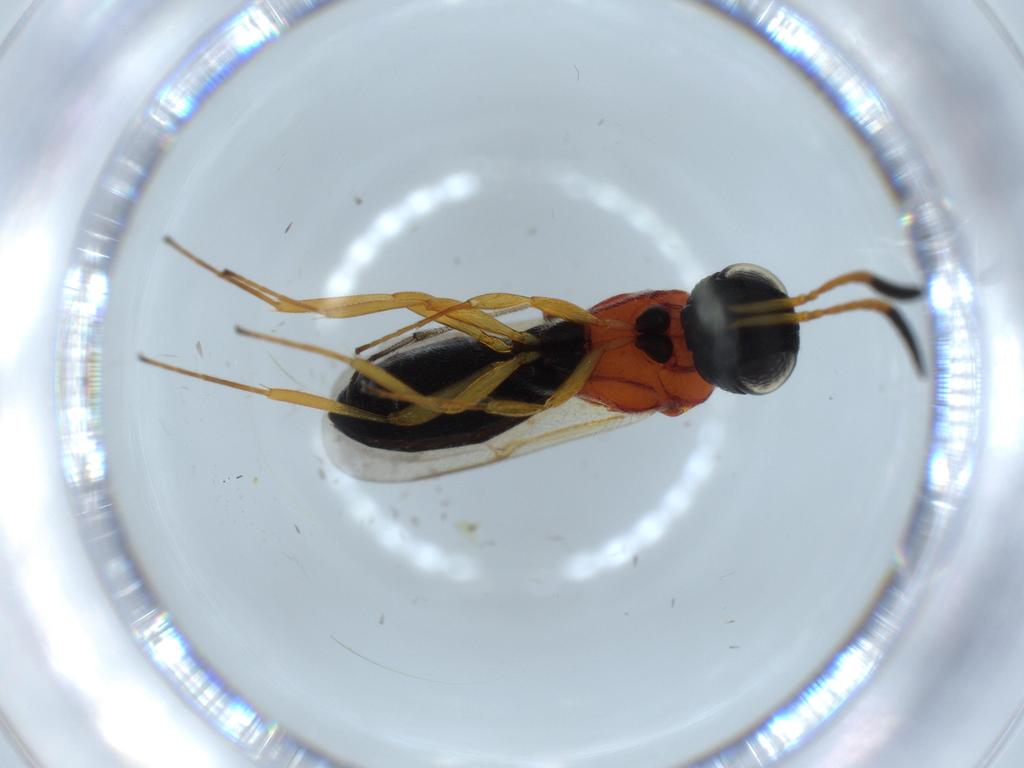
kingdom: Animalia
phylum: Arthropoda
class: Insecta
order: Hymenoptera
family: Scelionidae
